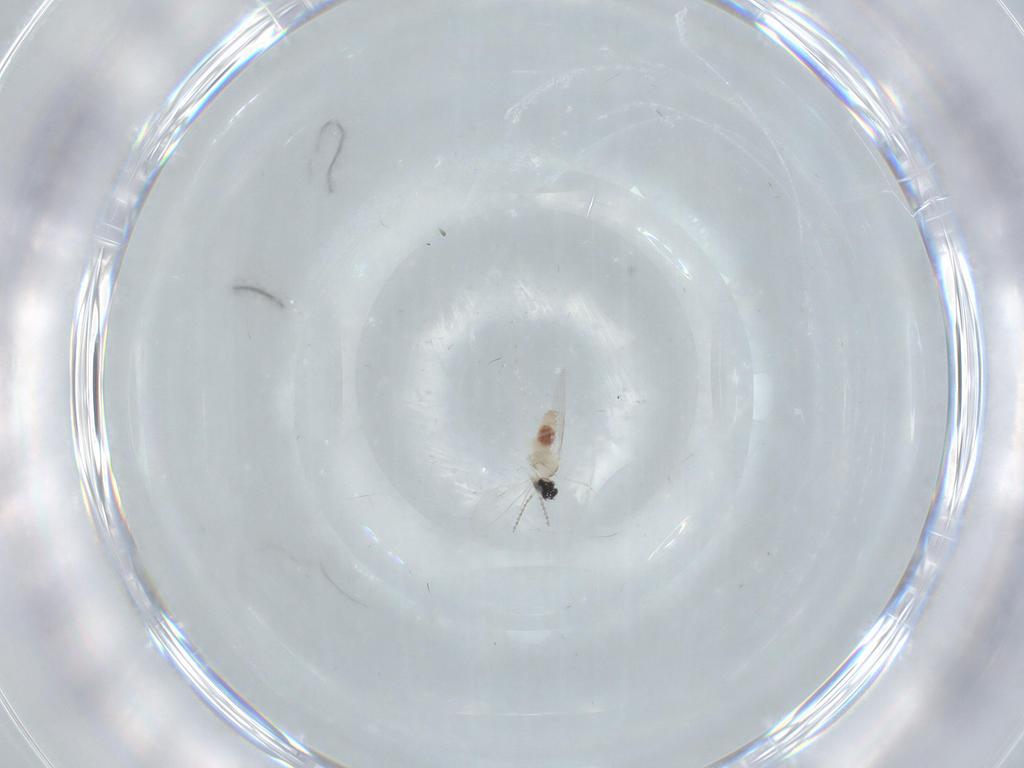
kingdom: Animalia
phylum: Arthropoda
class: Insecta
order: Diptera
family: Cecidomyiidae
